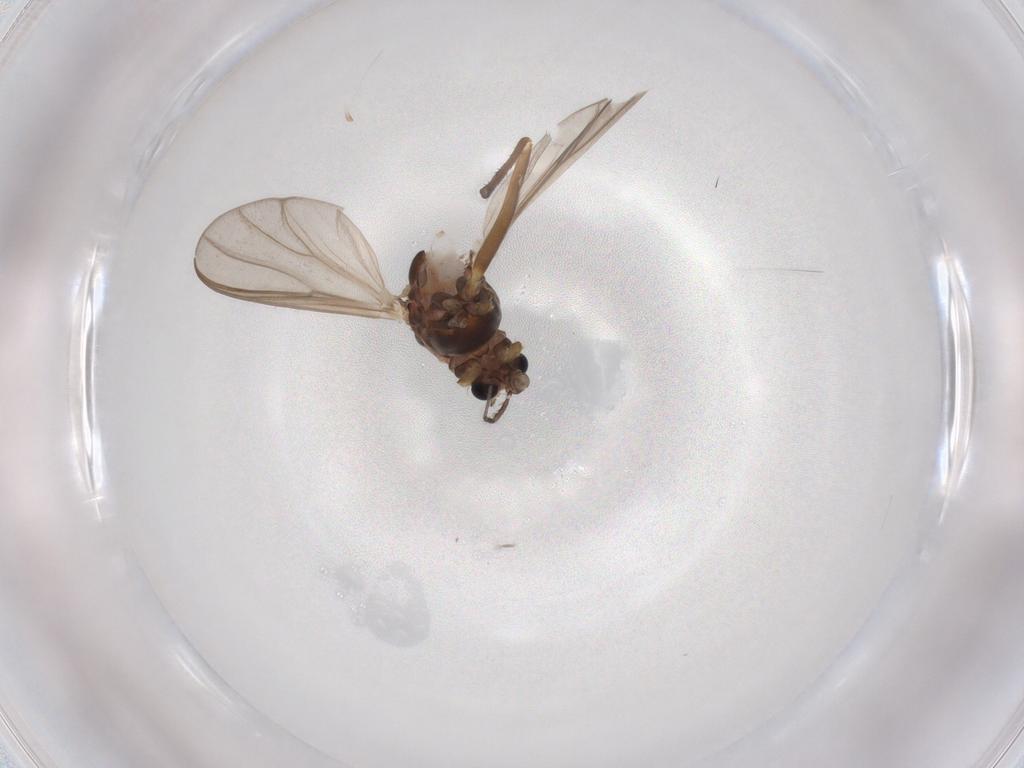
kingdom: Animalia
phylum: Arthropoda
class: Insecta
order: Diptera
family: Chironomidae
